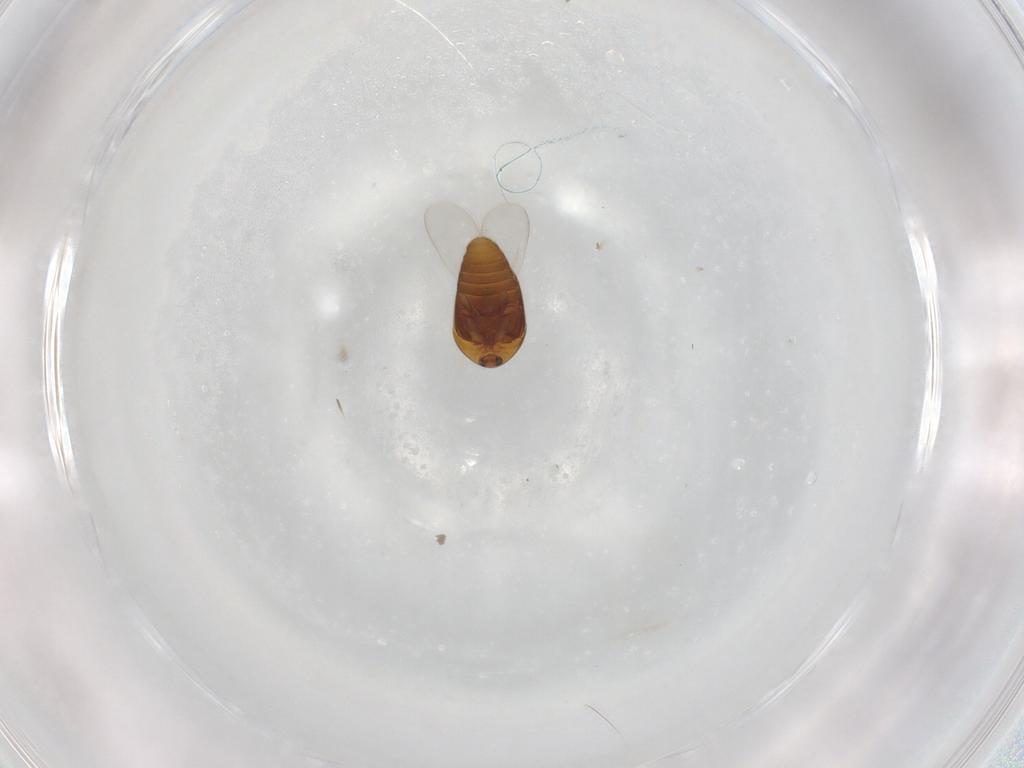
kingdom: Animalia
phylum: Arthropoda
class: Insecta
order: Coleoptera
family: Corylophidae
